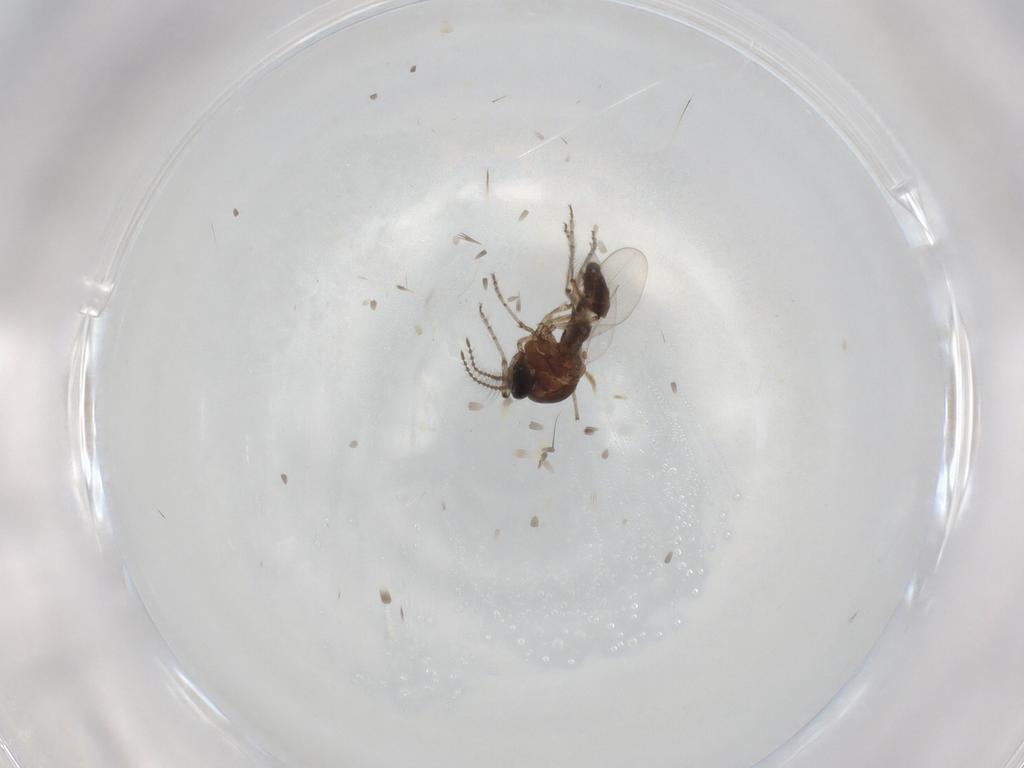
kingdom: Animalia
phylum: Arthropoda
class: Insecta
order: Diptera
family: Ceratopogonidae
